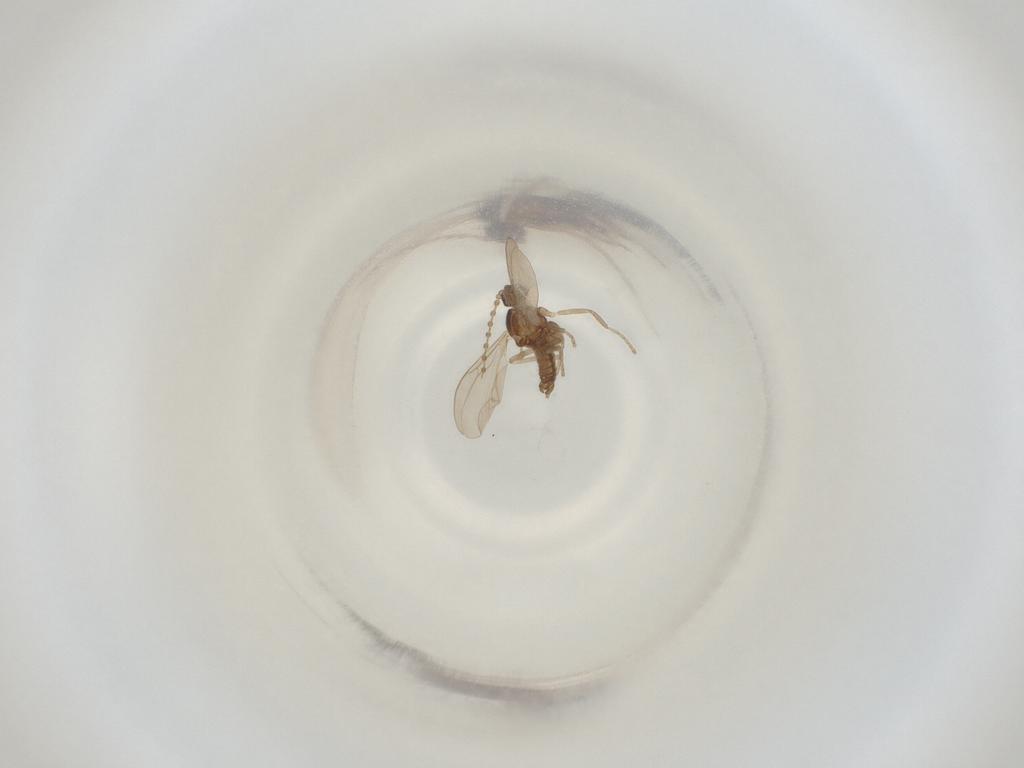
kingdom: Animalia
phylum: Arthropoda
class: Insecta
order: Diptera
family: Cecidomyiidae
